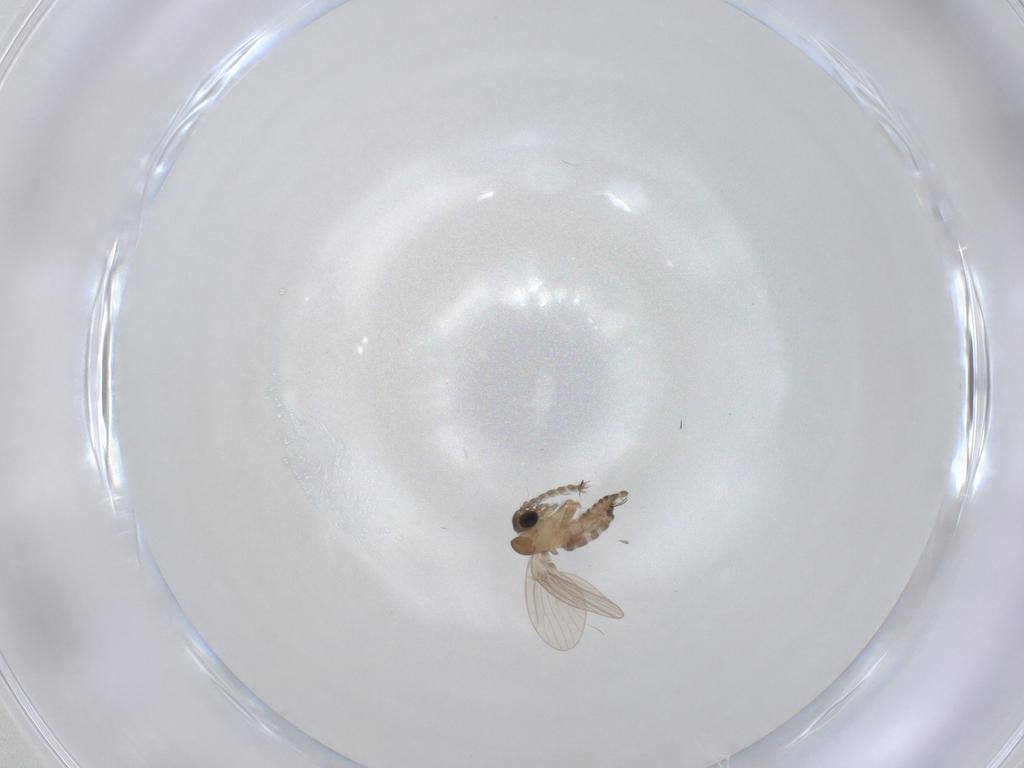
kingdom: Animalia
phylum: Arthropoda
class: Insecta
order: Diptera
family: Psychodidae
